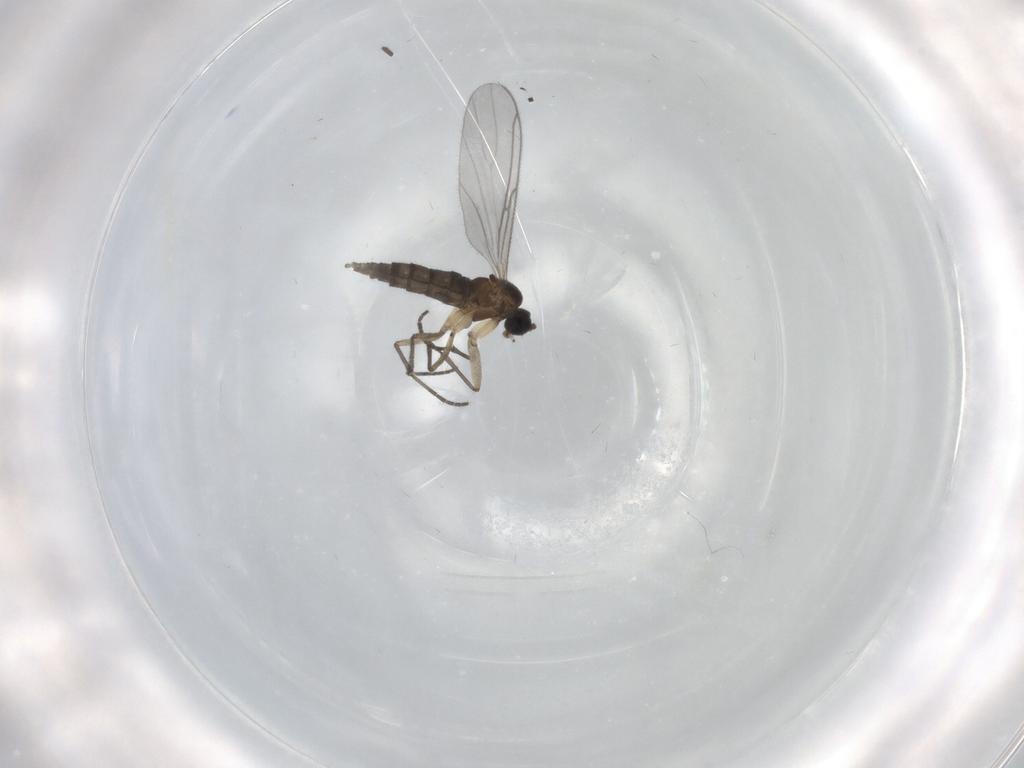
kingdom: Animalia
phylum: Arthropoda
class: Insecta
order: Diptera
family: Sciaridae
